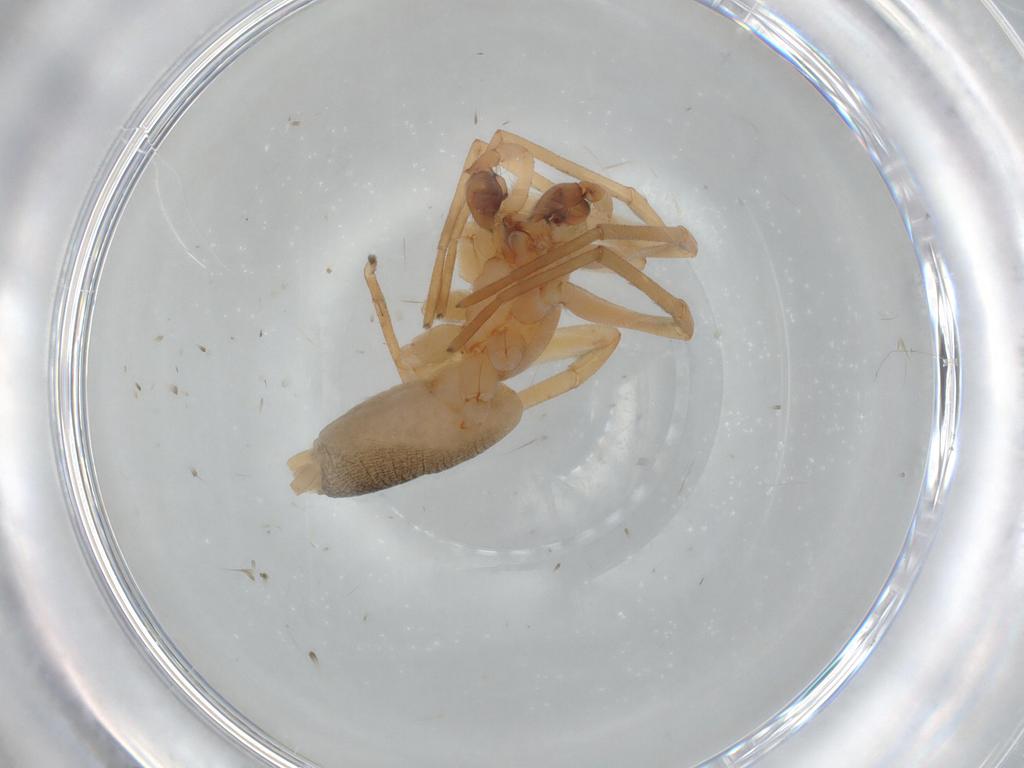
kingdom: Animalia
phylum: Arthropoda
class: Arachnida
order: Araneae
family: Corinnidae
